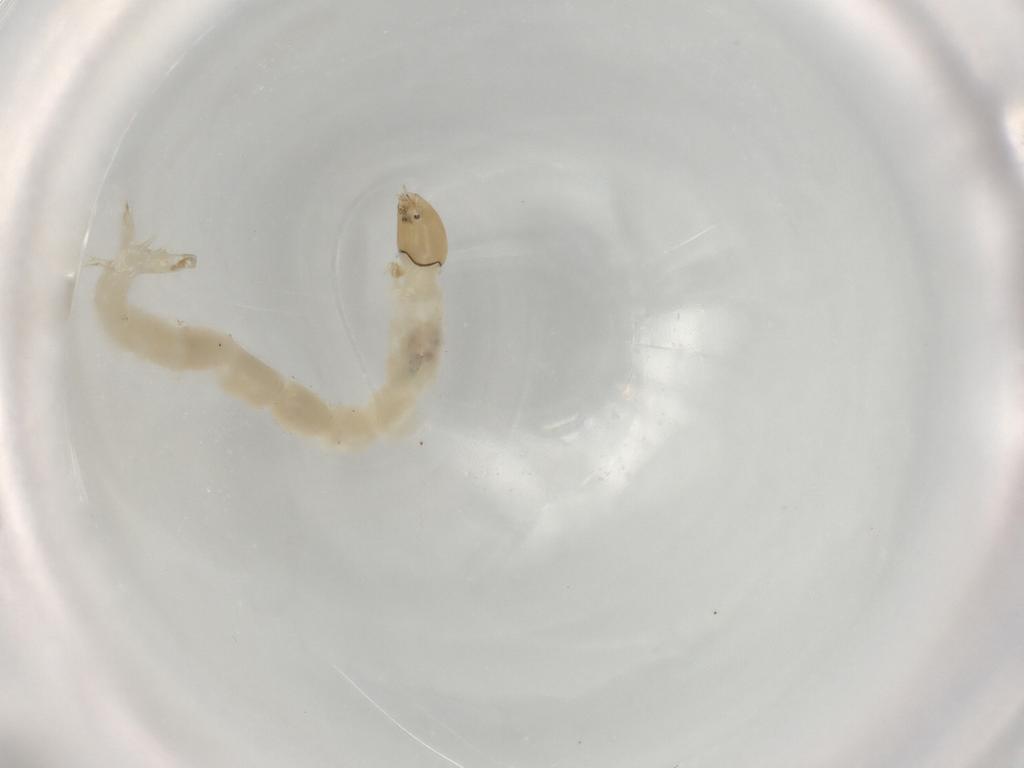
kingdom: Animalia
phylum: Arthropoda
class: Insecta
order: Diptera
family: Chironomidae
